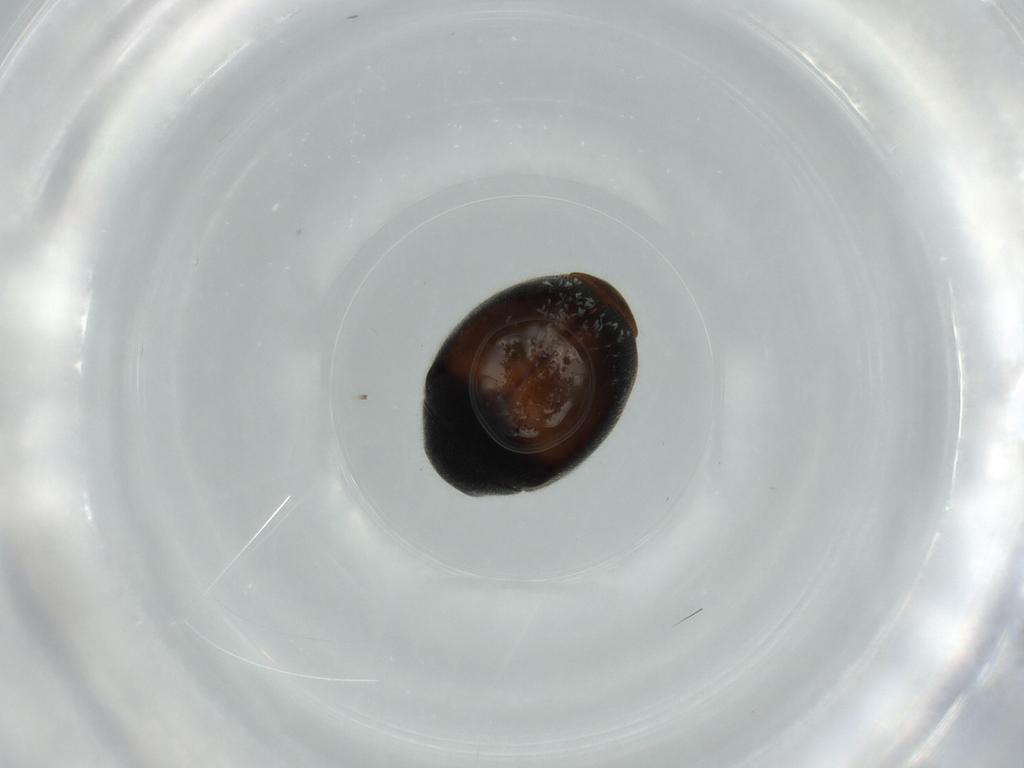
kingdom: Animalia
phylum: Arthropoda
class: Insecta
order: Coleoptera
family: Coccinellidae
